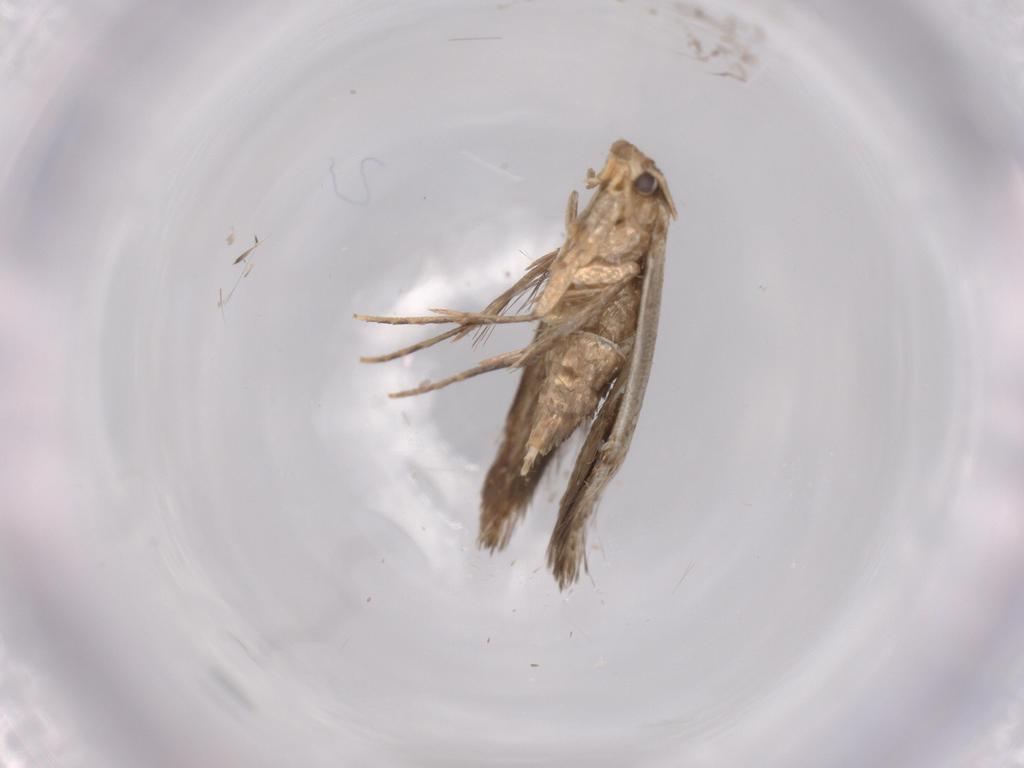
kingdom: Animalia
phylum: Arthropoda
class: Insecta
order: Lepidoptera
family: Tineidae
